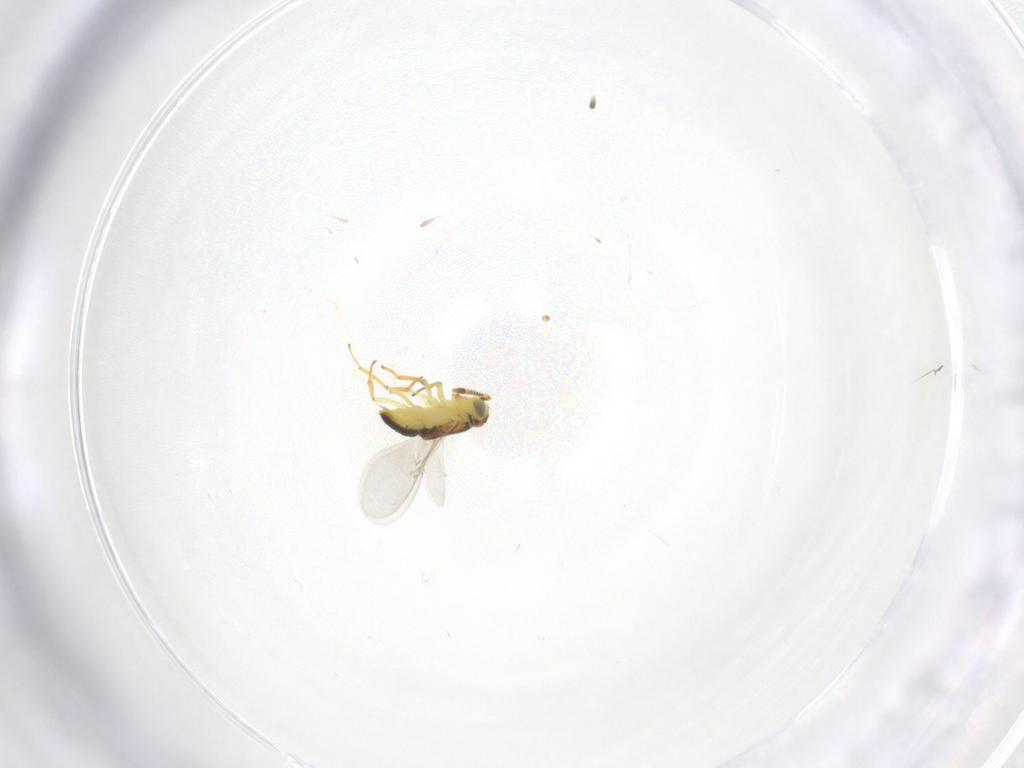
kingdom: Animalia
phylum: Arthropoda
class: Insecta
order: Hymenoptera
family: Encyrtidae
